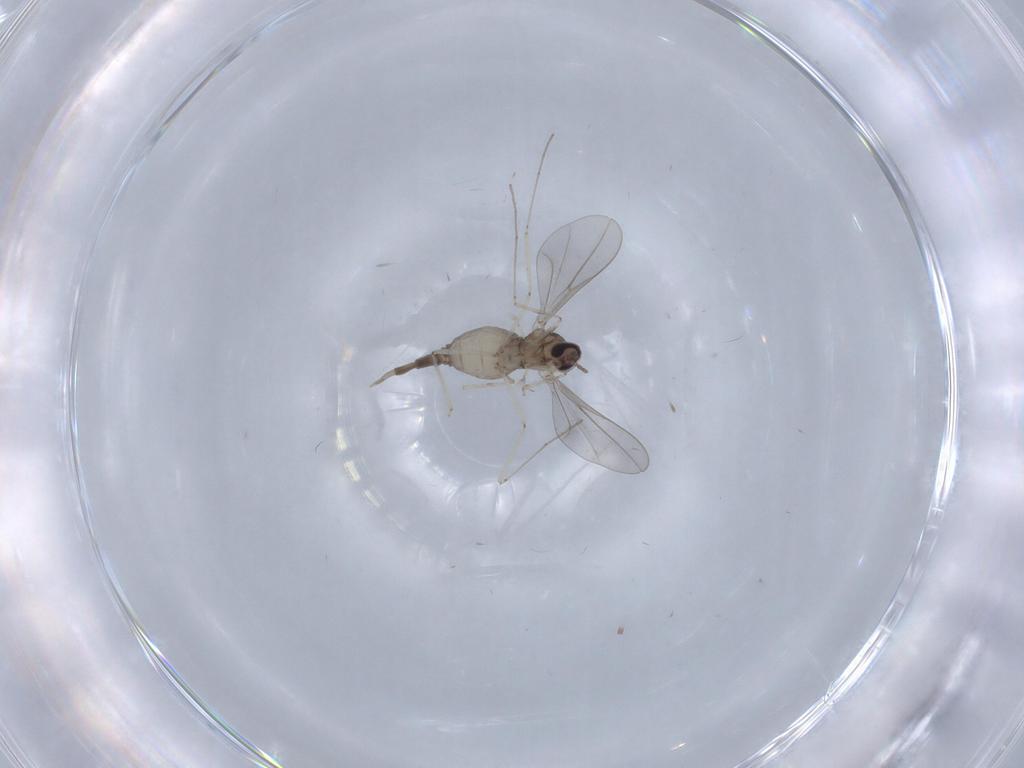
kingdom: Animalia
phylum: Arthropoda
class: Insecta
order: Diptera
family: Cecidomyiidae
